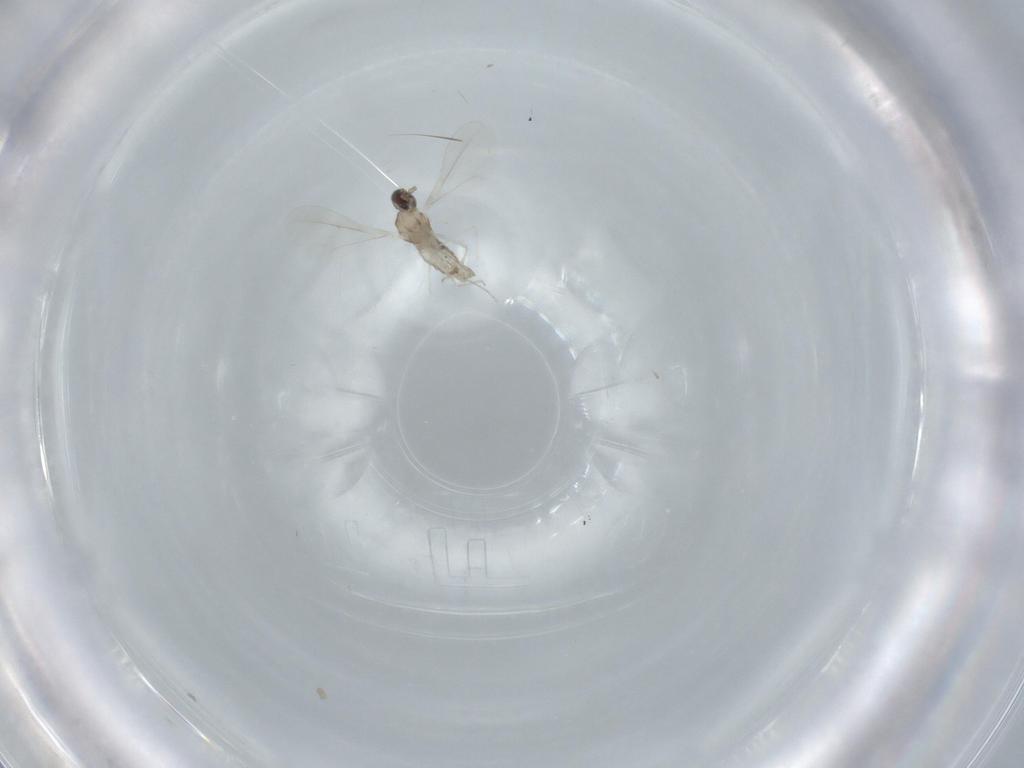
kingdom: Animalia
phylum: Arthropoda
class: Insecta
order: Diptera
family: Cecidomyiidae
